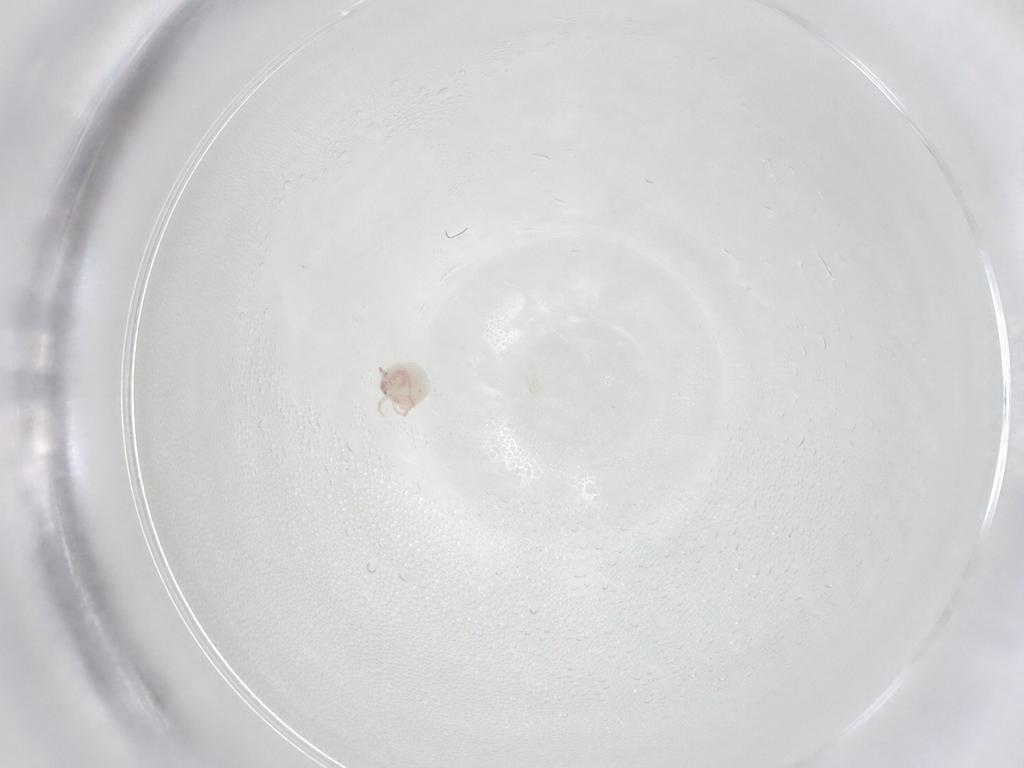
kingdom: Animalia
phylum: Arthropoda
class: Arachnida
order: Trombidiformes
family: Pionidae
